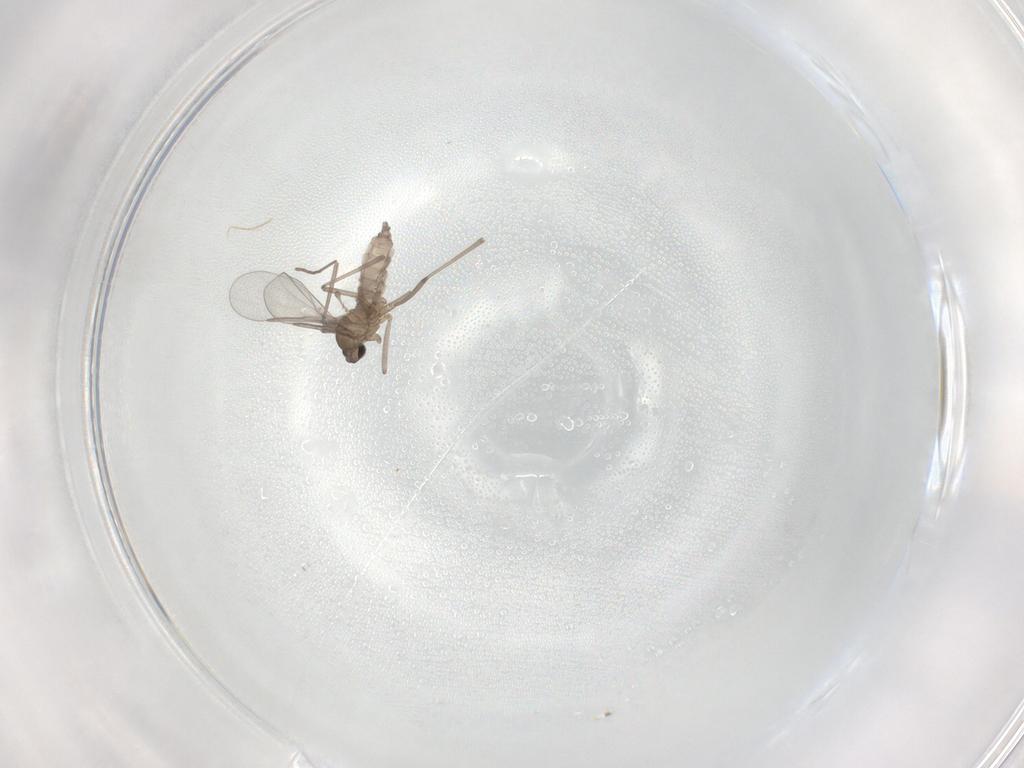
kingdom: Animalia
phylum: Arthropoda
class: Insecta
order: Diptera
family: Cecidomyiidae
